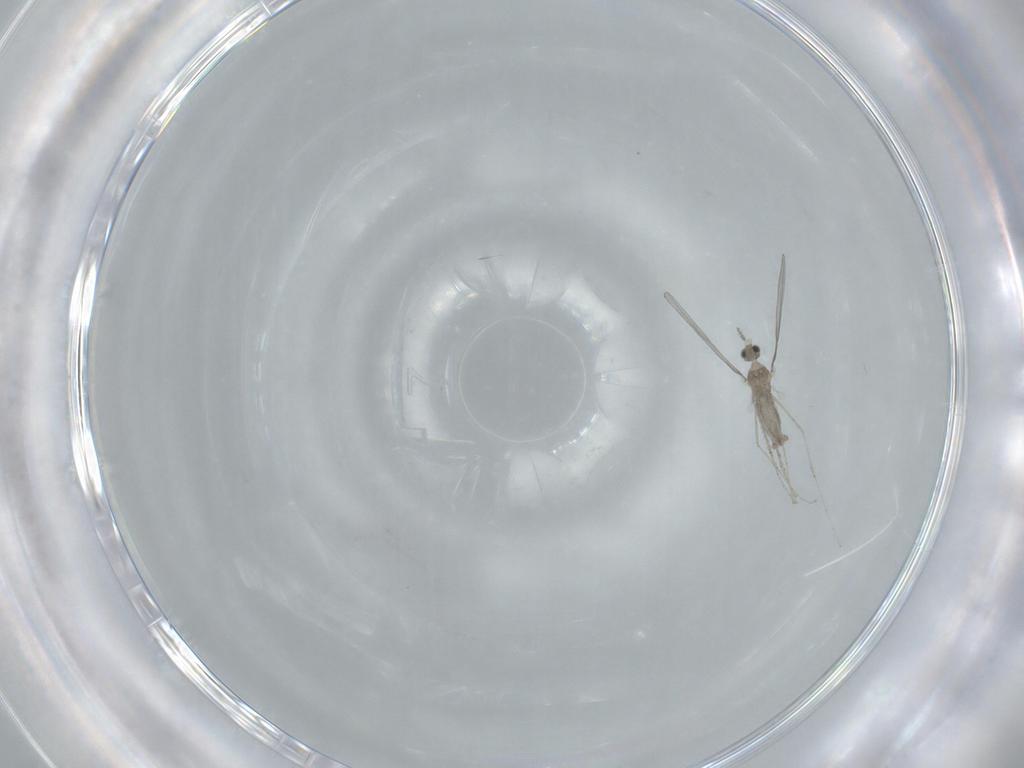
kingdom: Animalia
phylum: Arthropoda
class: Insecta
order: Diptera
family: Cecidomyiidae
